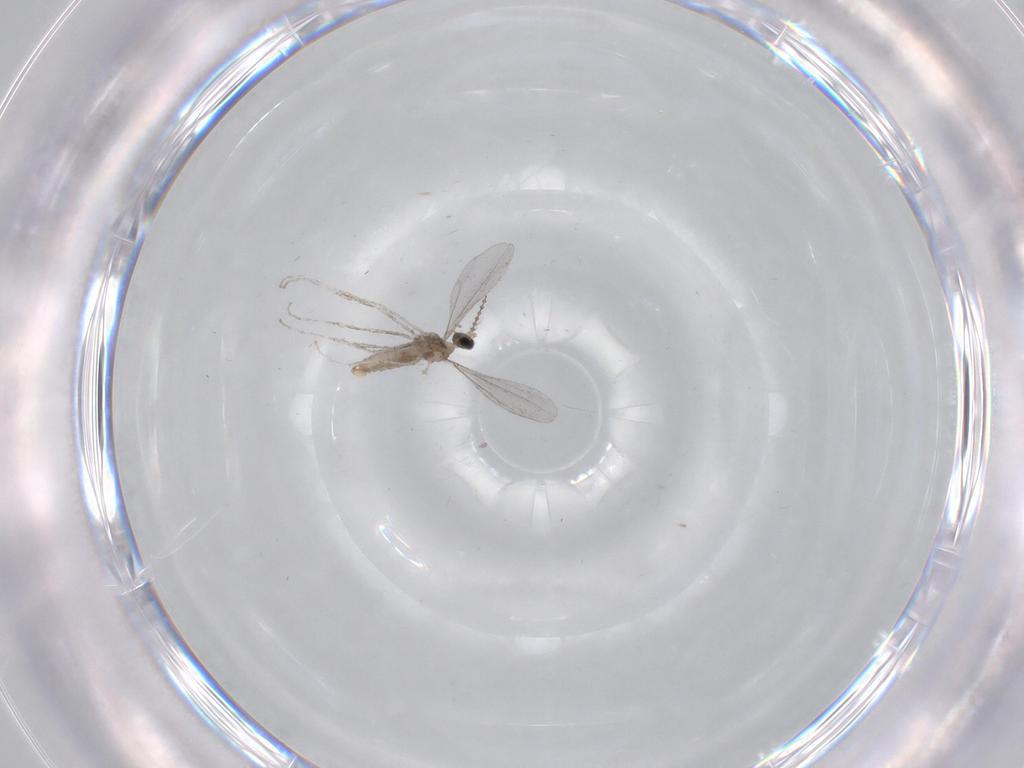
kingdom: Animalia
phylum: Arthropoda
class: Insecta
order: Diptera
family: Cecidomyiidae
